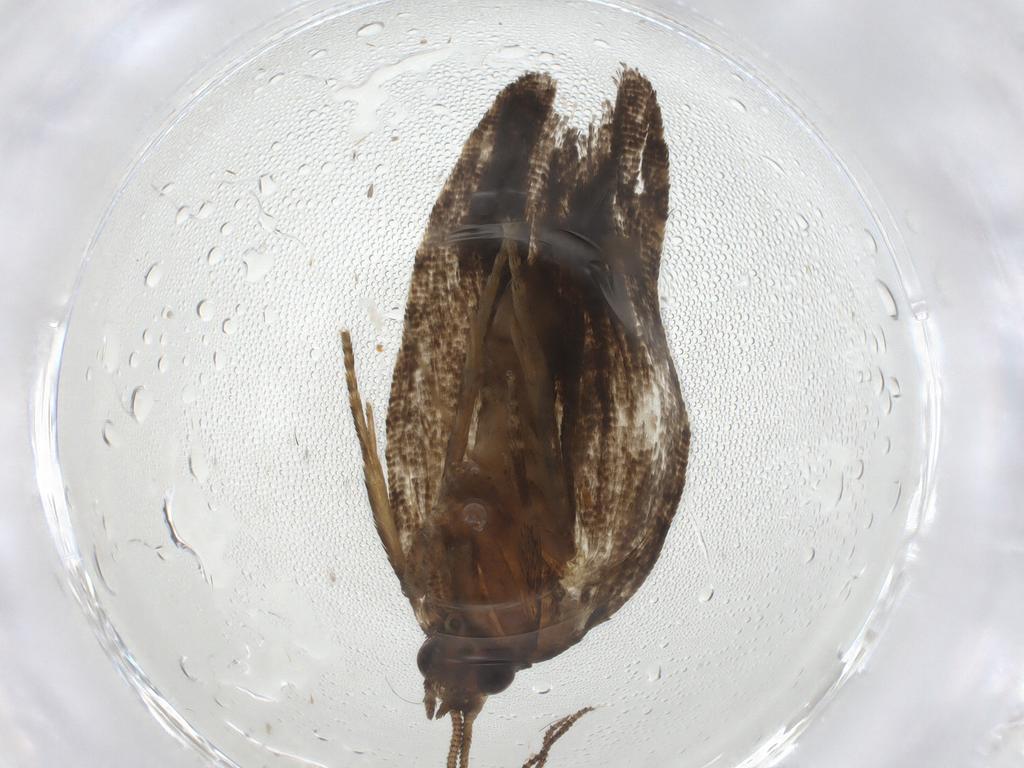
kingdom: Animalia
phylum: Arthropoda
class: Insecta
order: Lepidoptera
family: Tortricidae
